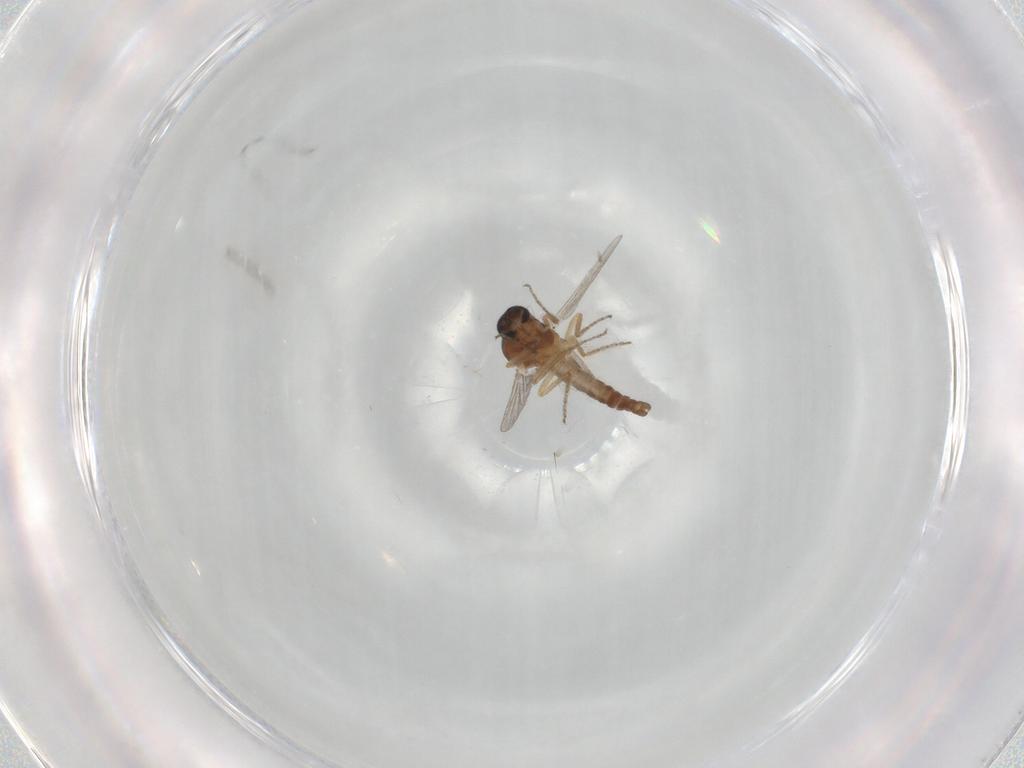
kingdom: Animalia
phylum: Arthropoda
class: Insecta
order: Diptera
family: Ceratopogonidae
